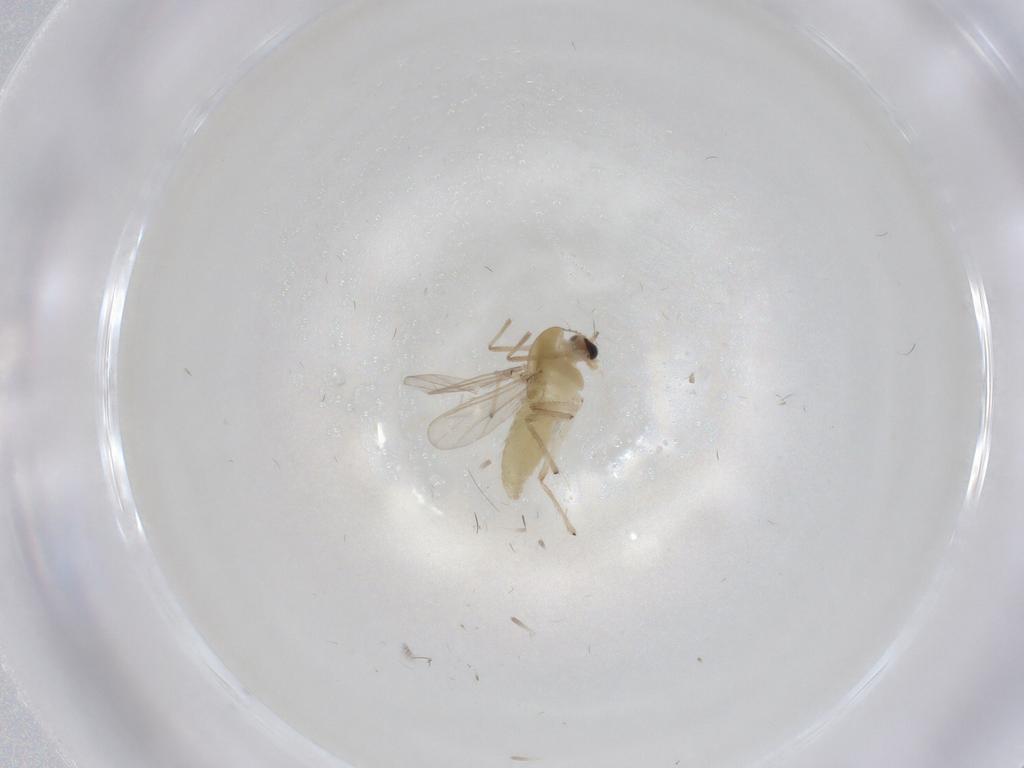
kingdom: Animalia
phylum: Arthropoda
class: Insecta
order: Diptera
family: Chironomidae
